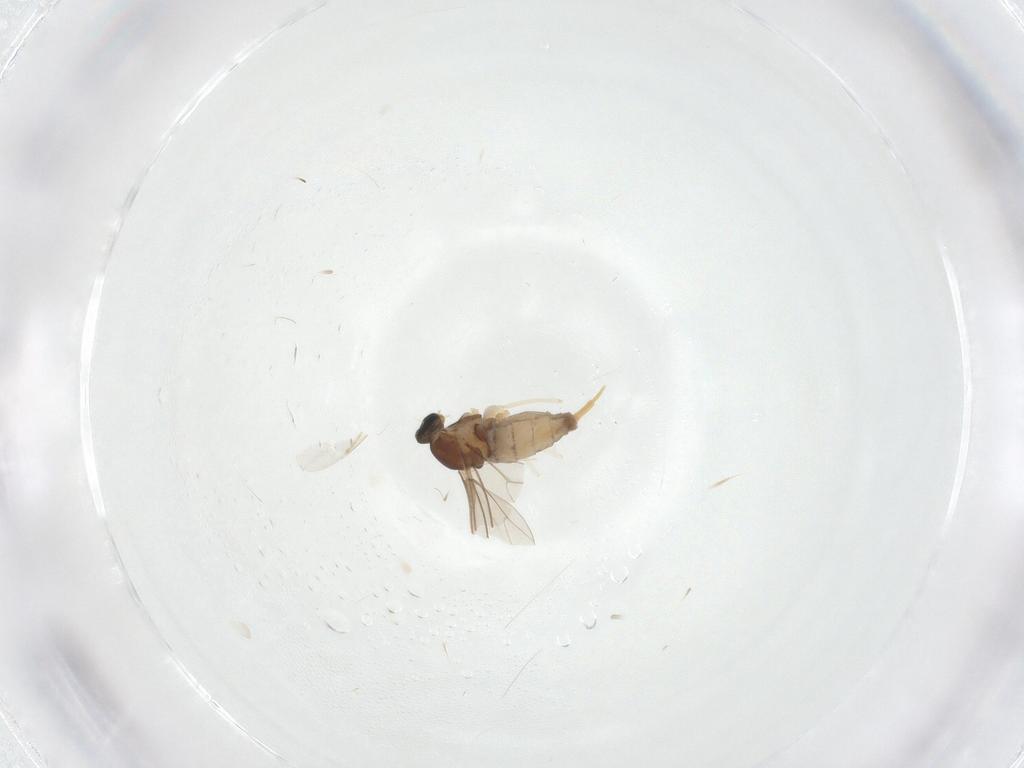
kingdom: Animalia
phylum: Arthropoda
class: Insecta
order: Diptera
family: Cecidomyiidae
